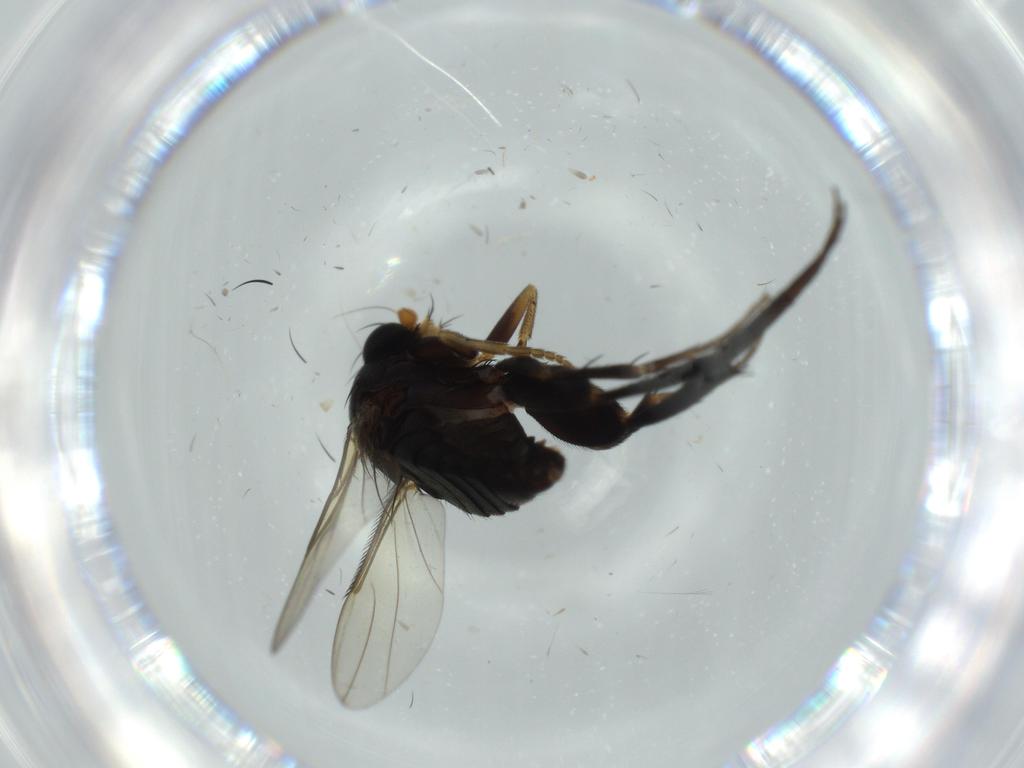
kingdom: Animalia
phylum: Arthropoda
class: Insecta
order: Diptera
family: Phoridae
